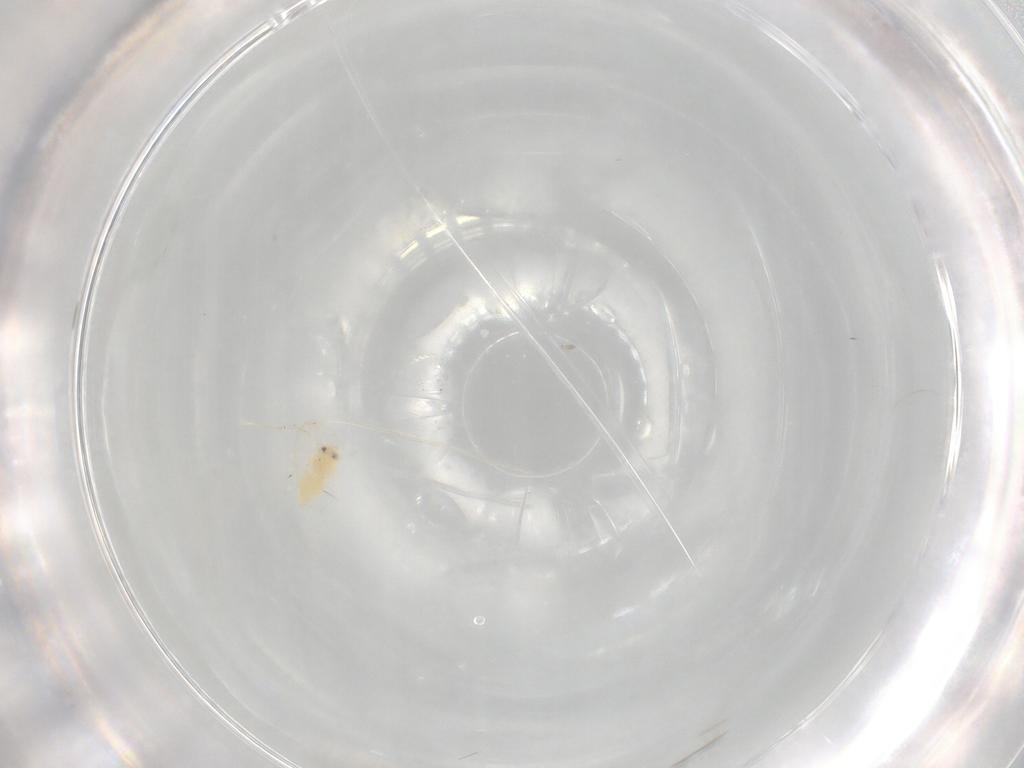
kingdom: Animalia
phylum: Arthropoda
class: Insecta
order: Hemiptera
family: Aleyrodidae
